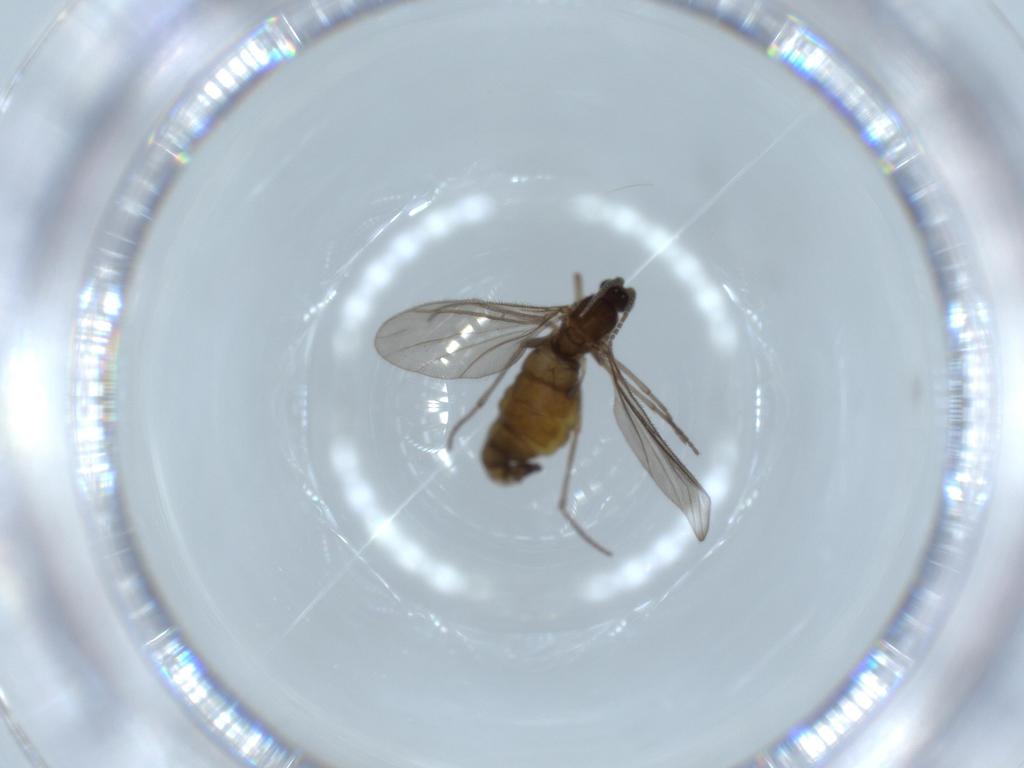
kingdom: Animalia
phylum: Arthropoda
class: Insecta
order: Diptera
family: Sciaridae
